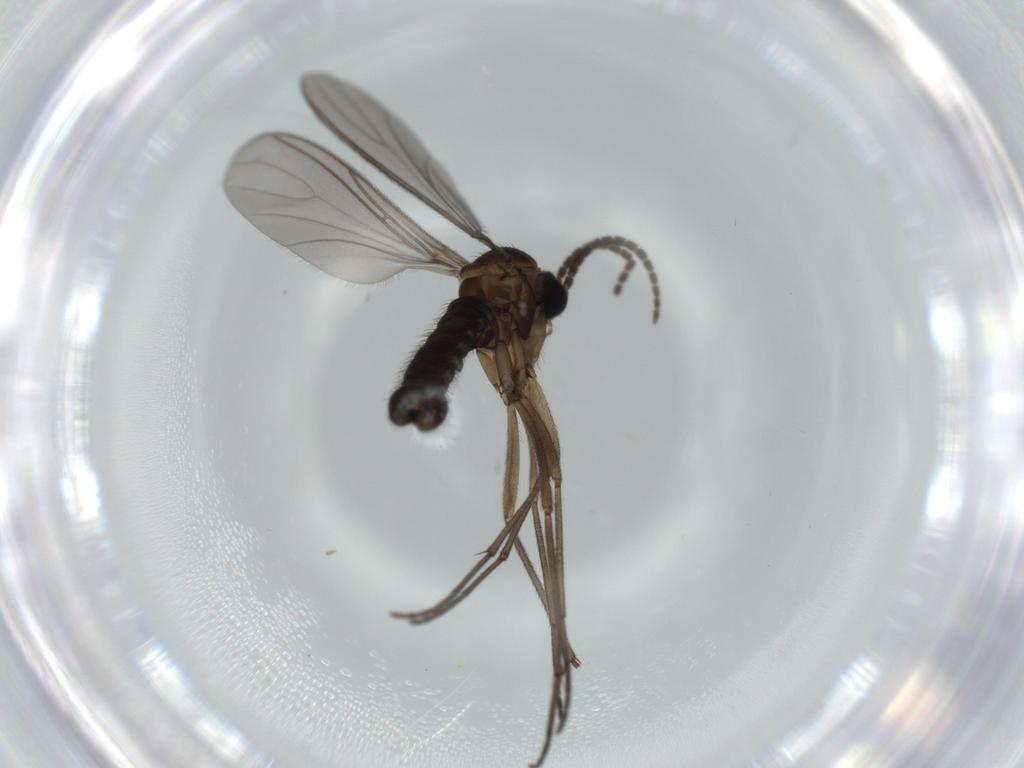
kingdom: Animalia
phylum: Arthropoda
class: Insecta
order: Diptera
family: Sciaridae
